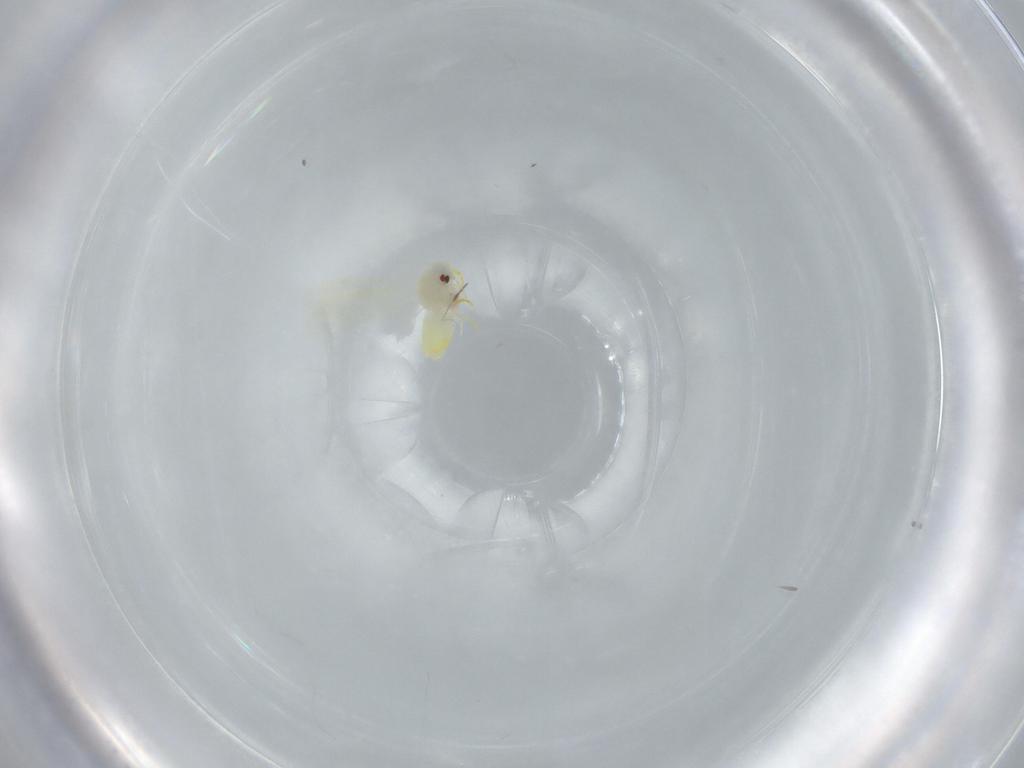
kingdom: Animalia
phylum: Arthropoda
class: Insecta
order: Hemiptera
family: Aleyrodidae
